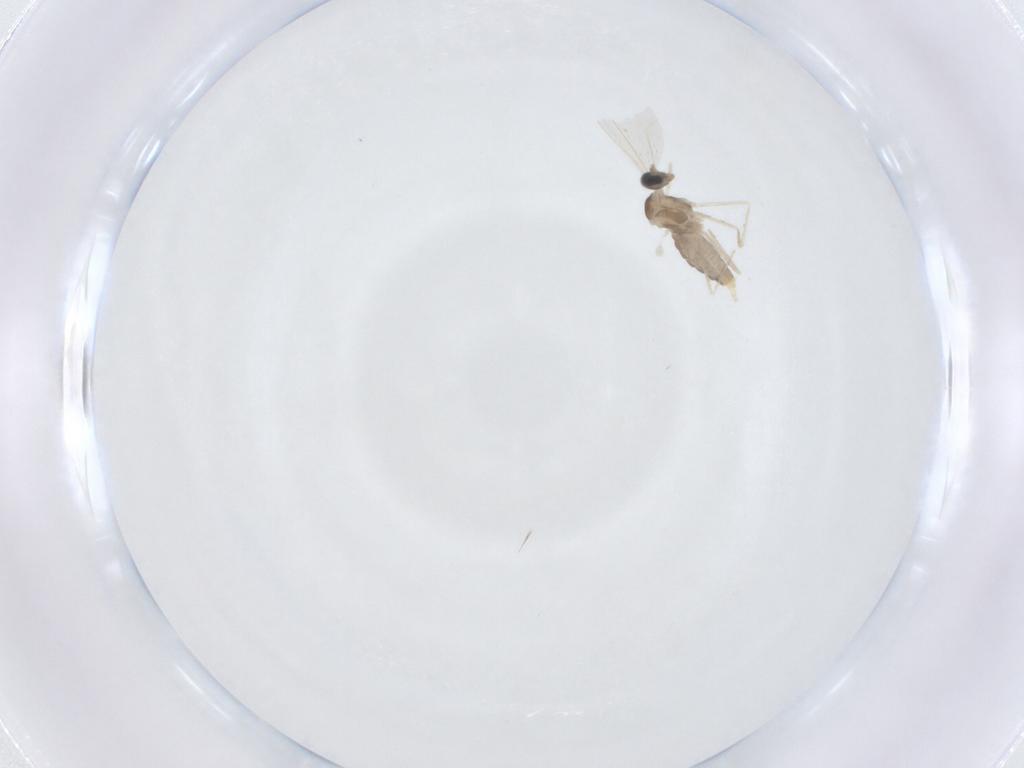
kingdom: Animalia
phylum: Arthropoda
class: Insecta
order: Diptera
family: Cecidomyiidae
